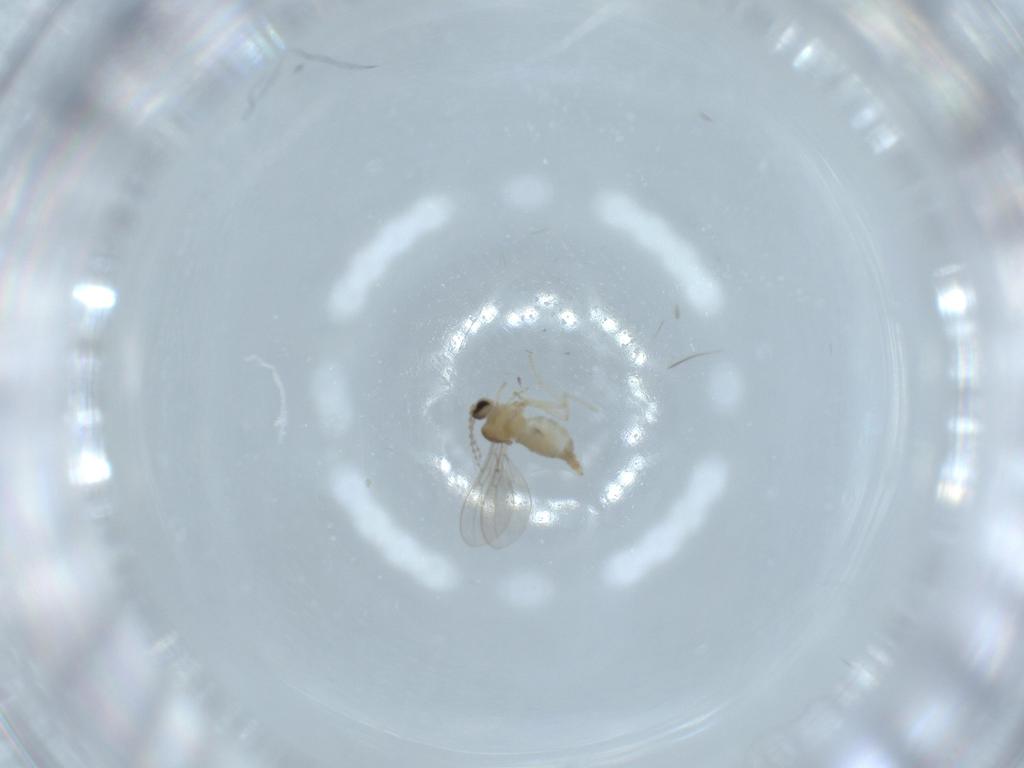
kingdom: Animalia
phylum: Arthropoda
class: Insecta
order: Diptera
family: Cecidomyiidae
